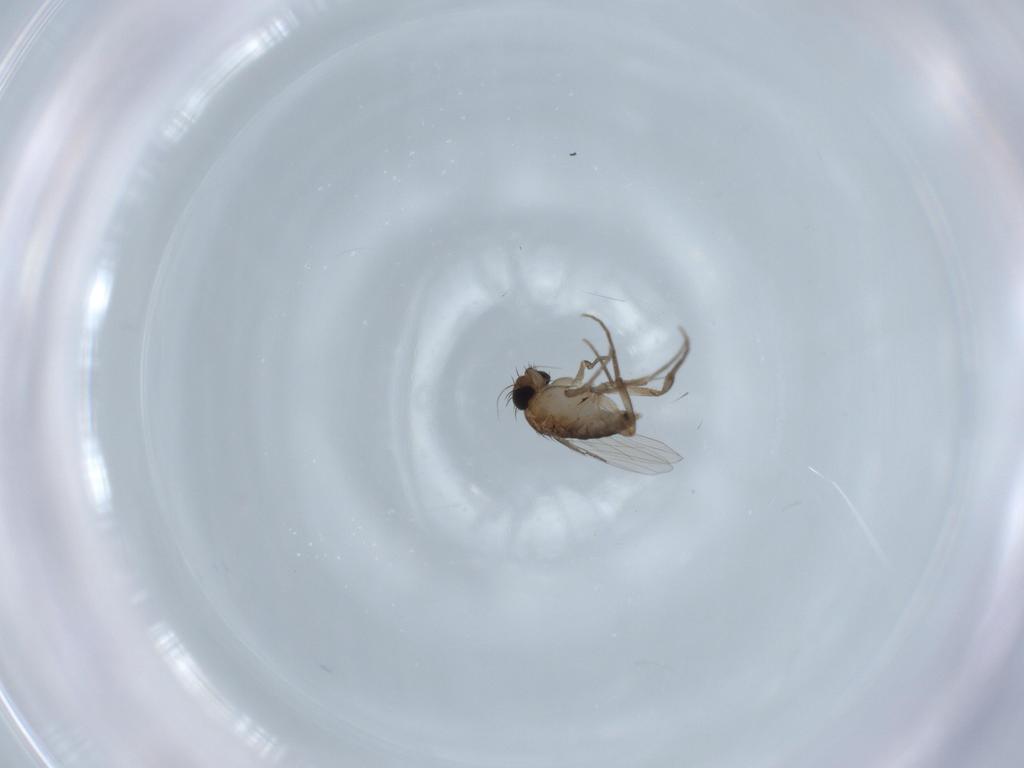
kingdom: Animalia
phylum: Arthropoda
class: Insecta
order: Diptera
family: Phoridae
